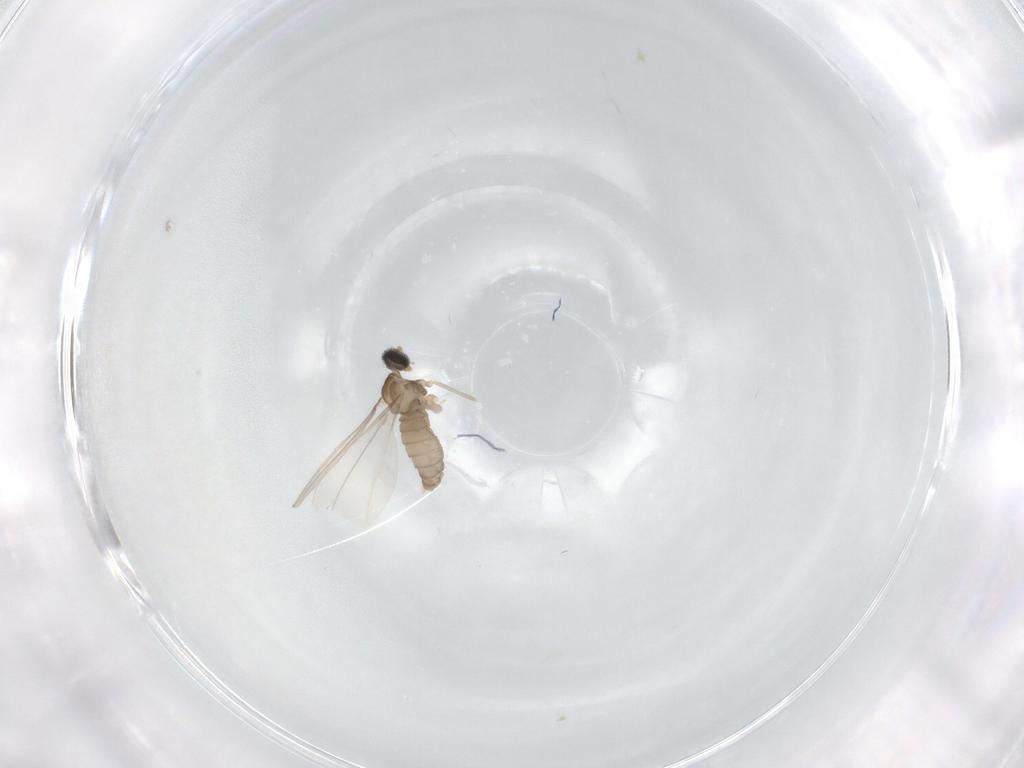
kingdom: Animalia
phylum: Arthropoda
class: Insecta
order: Diptera
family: Cecidomyiidae
